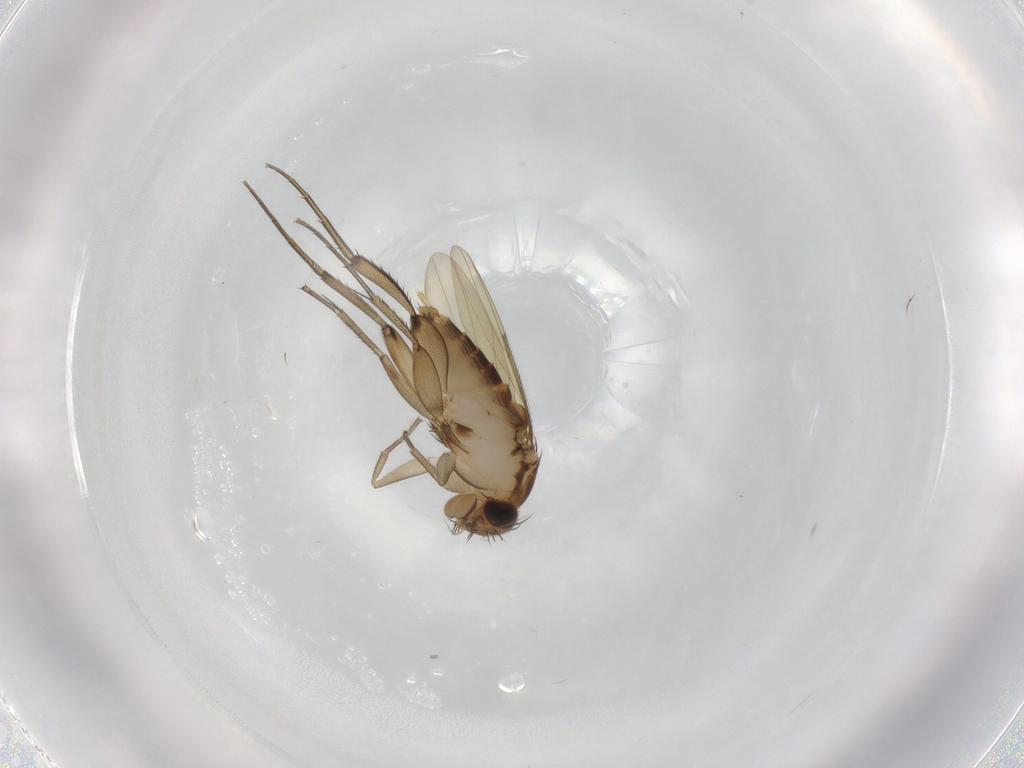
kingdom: Animalia
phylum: Arthropoda
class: Insecta
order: Diptera
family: Phoridae
